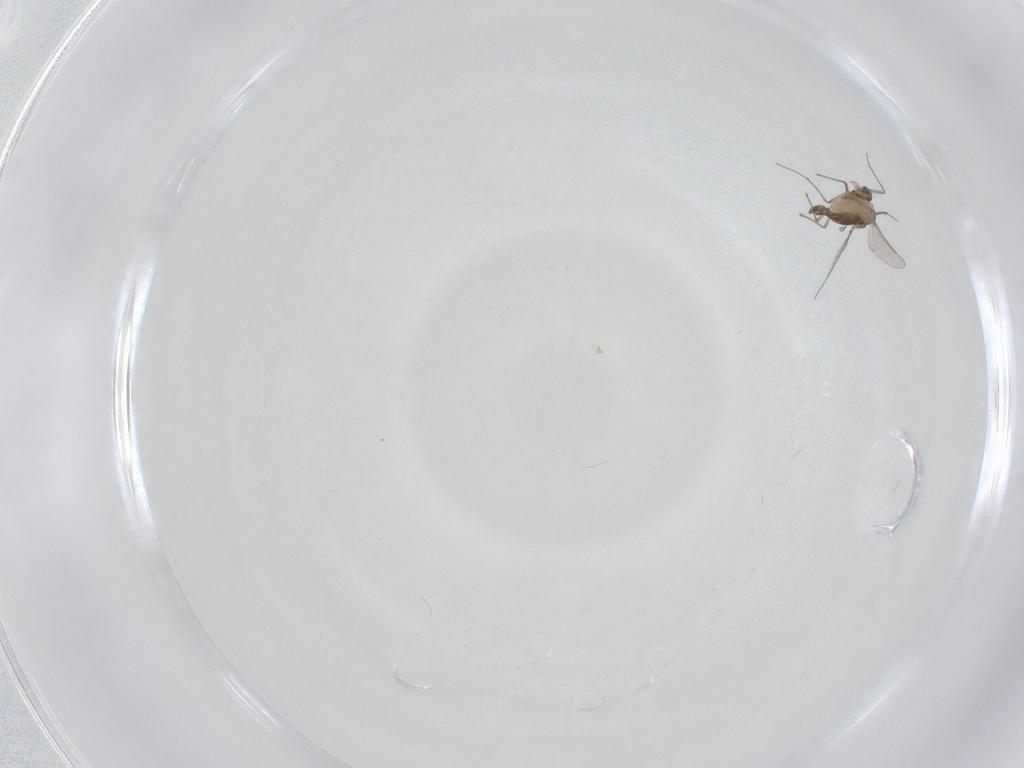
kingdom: Animalia
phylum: Arthropoda
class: Insecta
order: Diptera
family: Chironomidae
